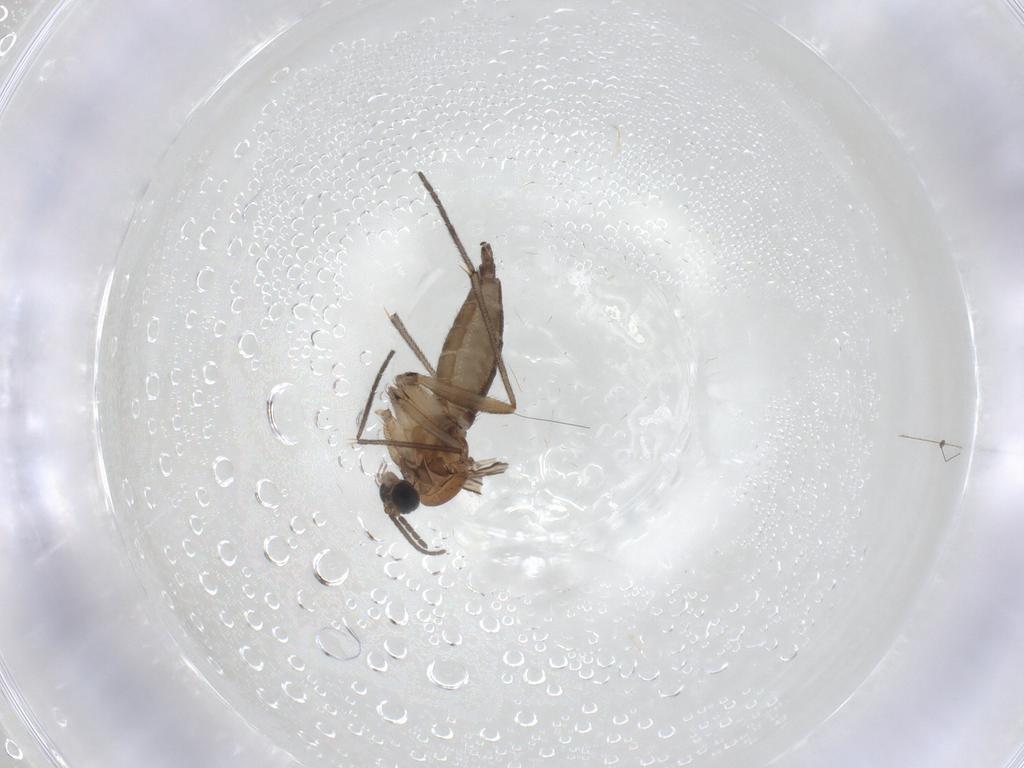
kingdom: Animalia
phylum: Arthropoda
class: Insecta
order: Diptera
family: Sciaridae
